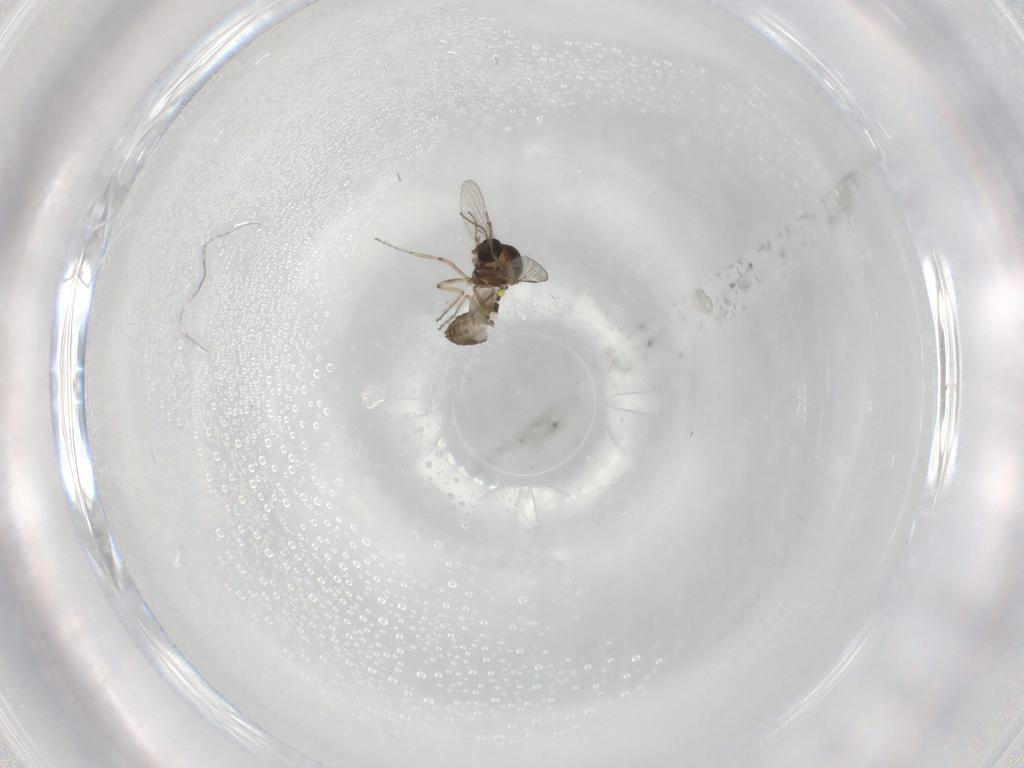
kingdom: Animalia
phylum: Arthropoda
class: Insecta
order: Diptera
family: Ceratopogonidae
